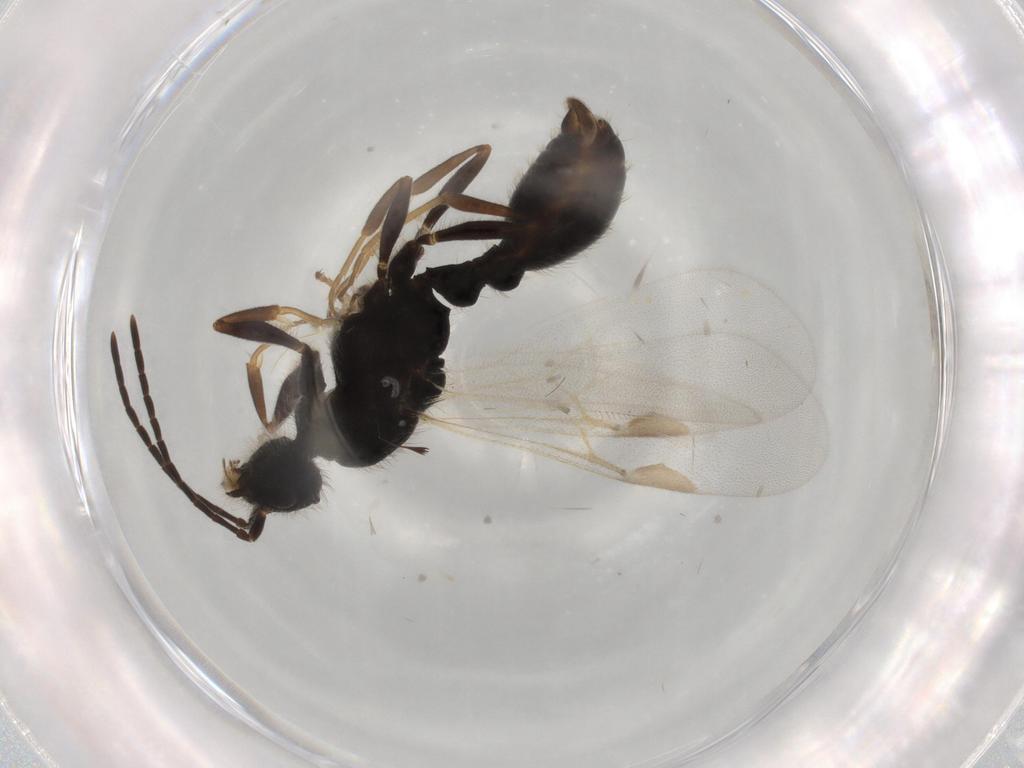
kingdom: Animalia
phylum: Arthropoda
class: Insecta
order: Hymenoptera
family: Formicidae
